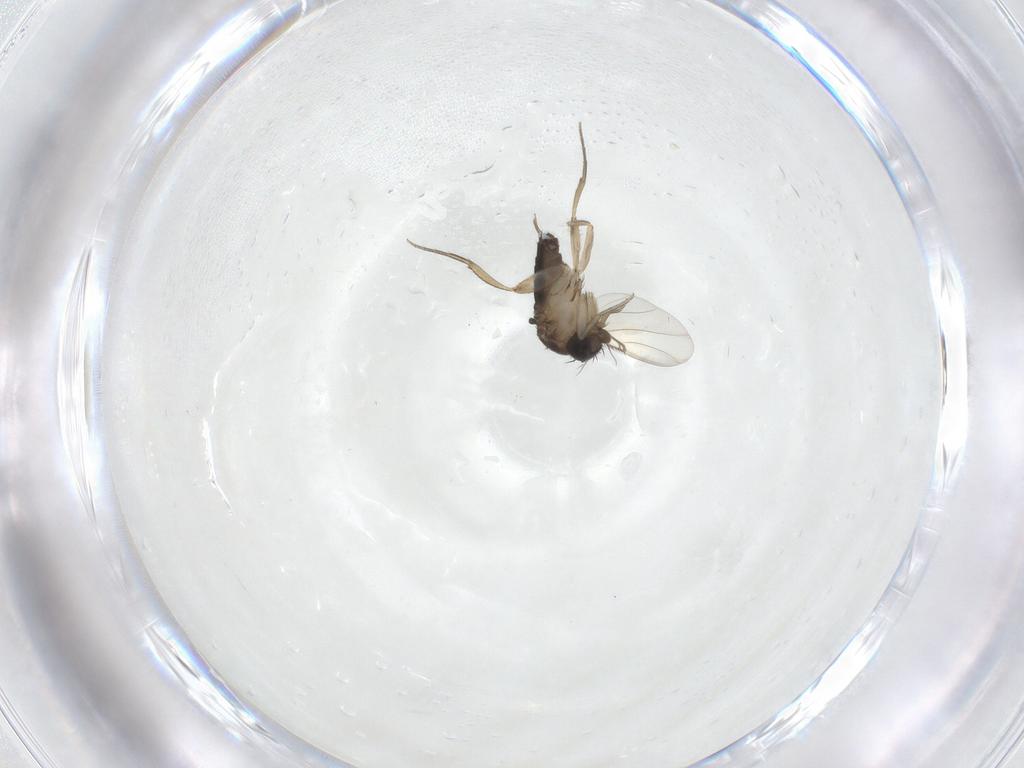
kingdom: Animalia
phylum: Arthropoda
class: Insecta
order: Diptera
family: Phoridae
